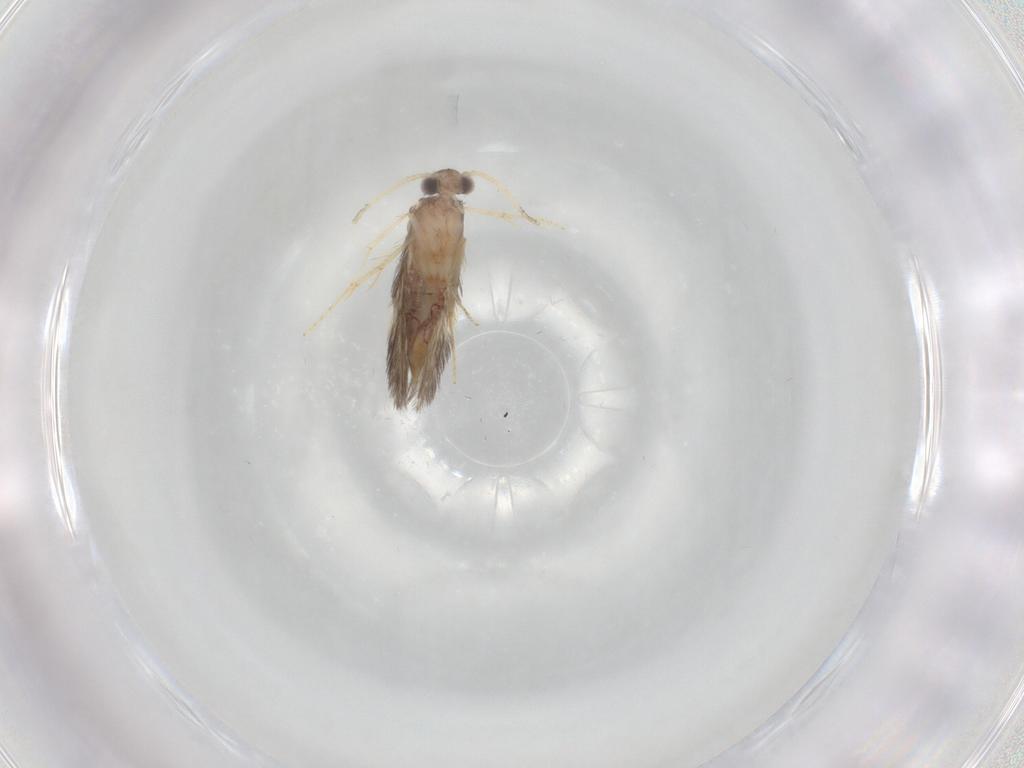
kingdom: Animalia
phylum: Arthropoda
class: Insecta
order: Trichoptera
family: Hydroptilidae
